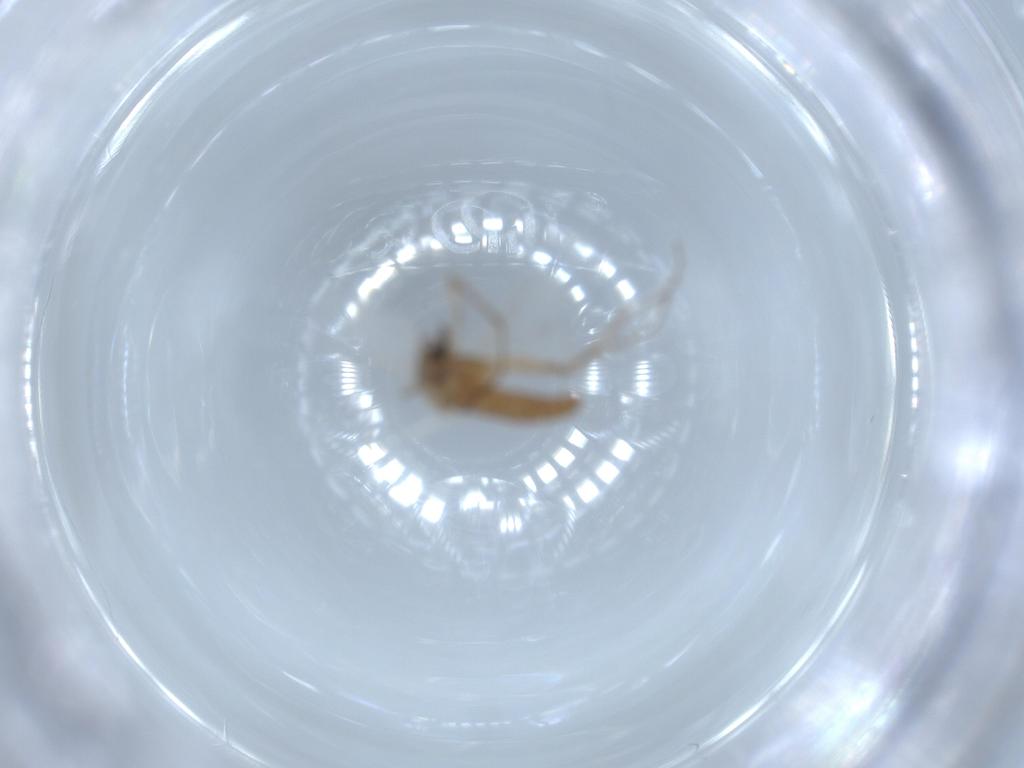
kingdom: Animalia
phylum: Arthropoda
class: Insecta
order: Diptera
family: Chironomidae
